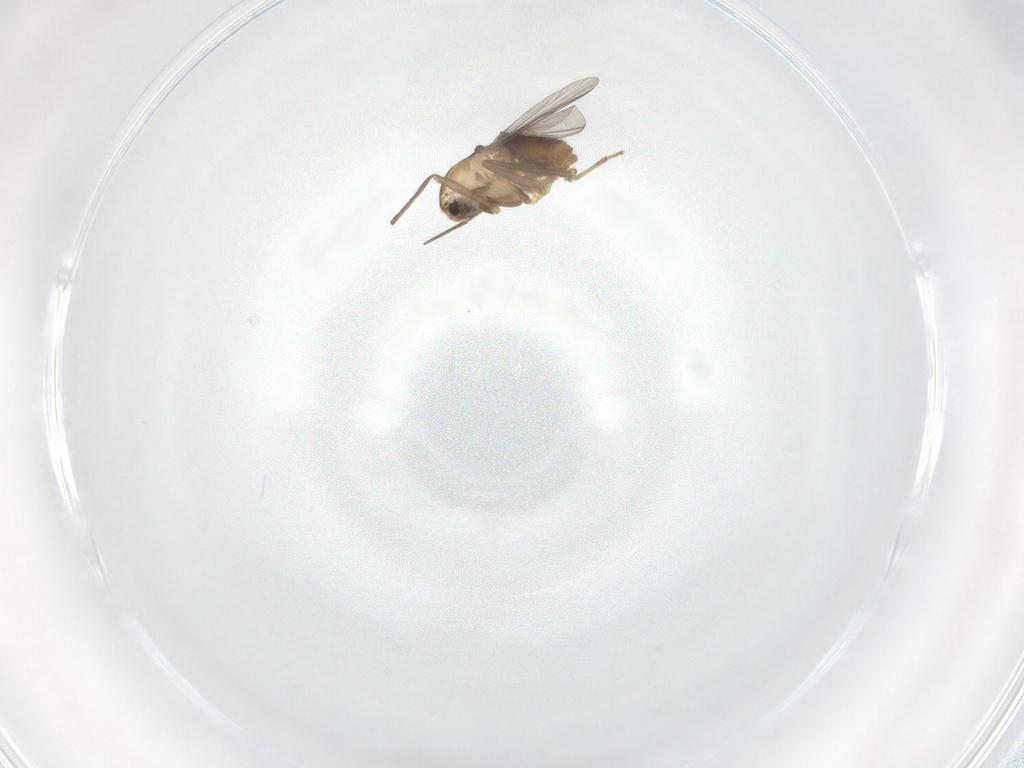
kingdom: Animalia
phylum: Arthropoda
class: Insecta
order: Diptera
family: Chironomidae
